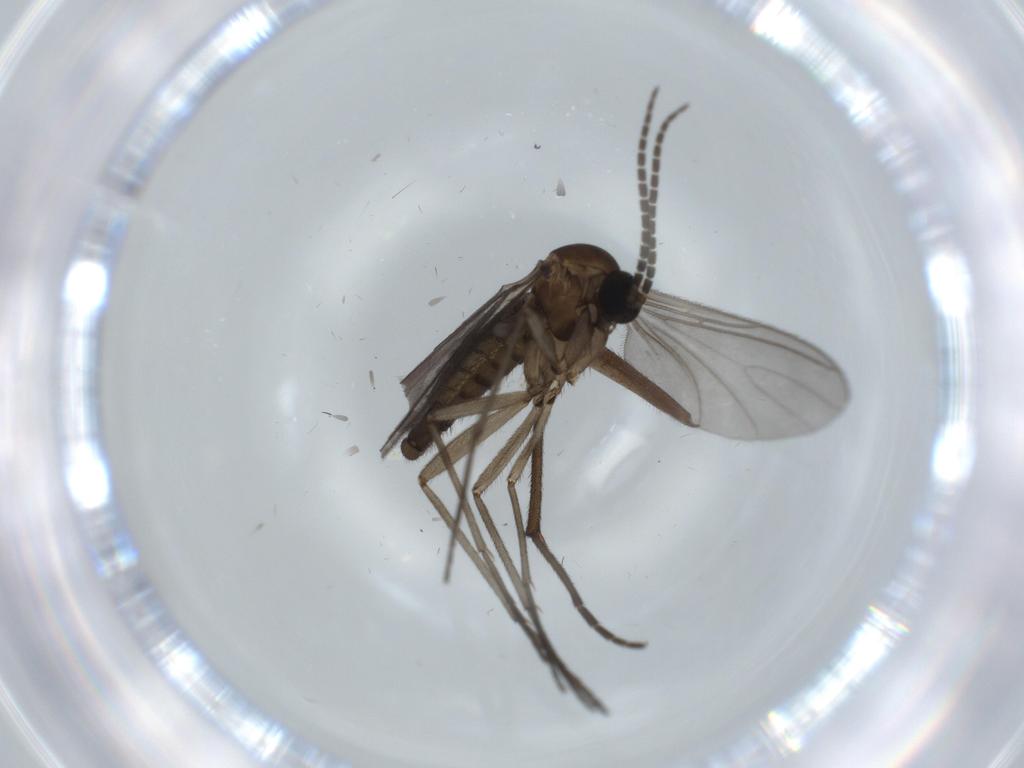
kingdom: Animalia
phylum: Arthropoda
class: Insecta
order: Diptera
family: Sciaridae
